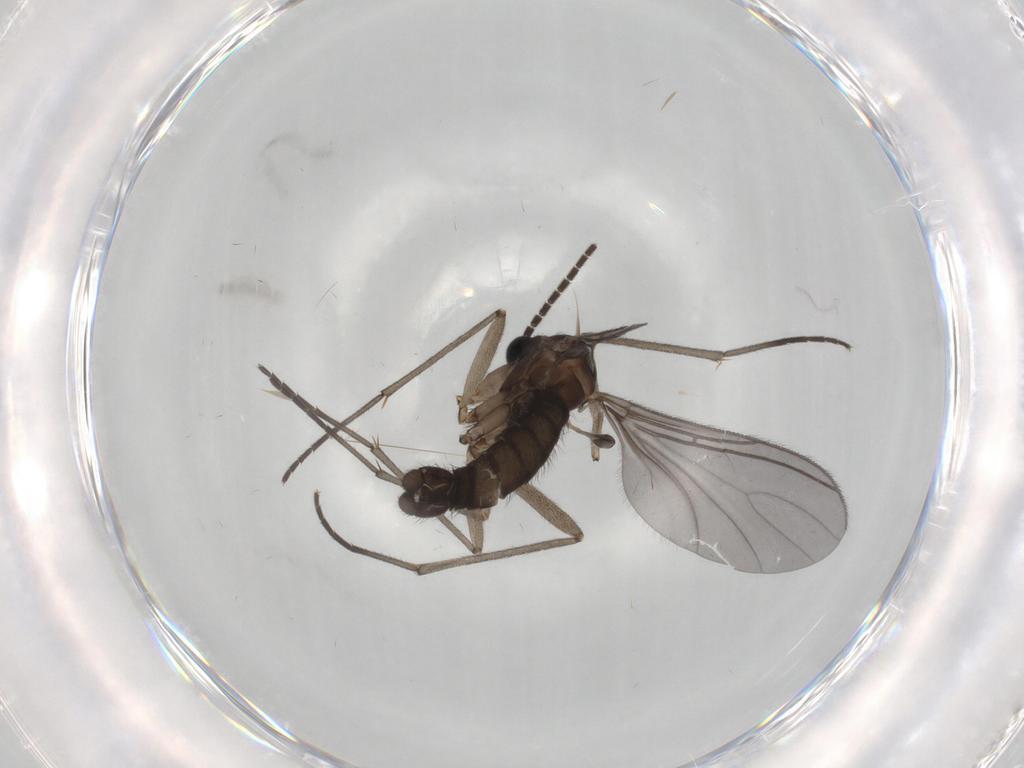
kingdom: Animalia
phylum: Arthropoda
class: Insecta
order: Diptera
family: Sciaridae
